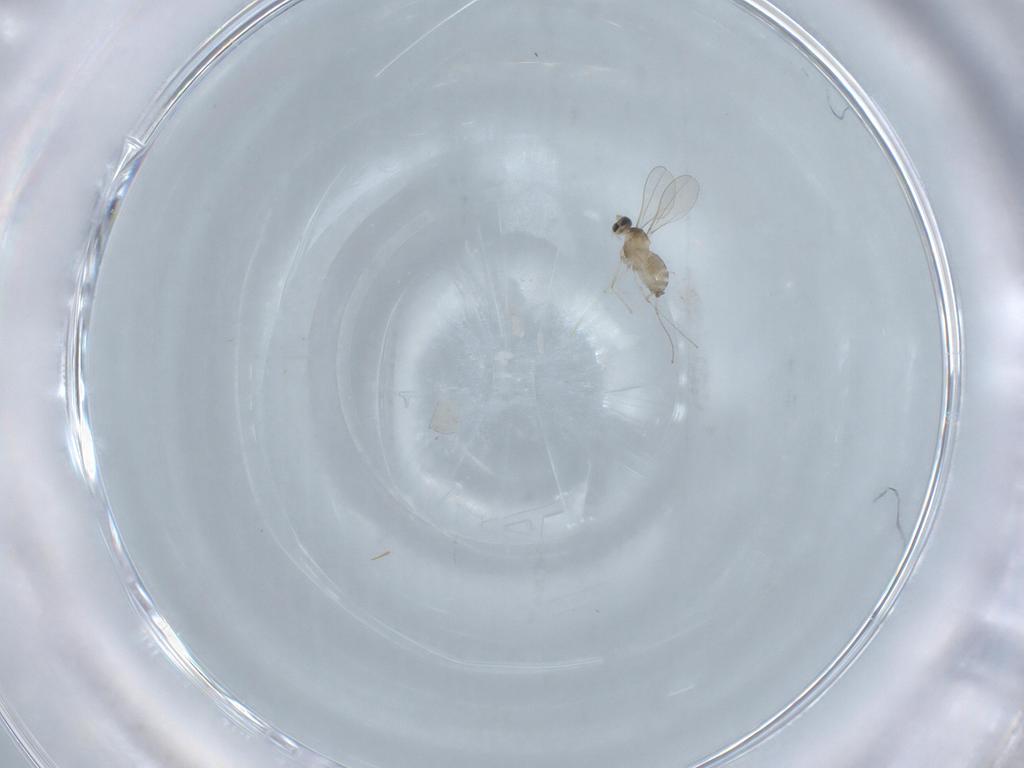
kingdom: Animalia
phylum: Arthropoda
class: Insecta
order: Diptera
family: Cecidomyiidae
